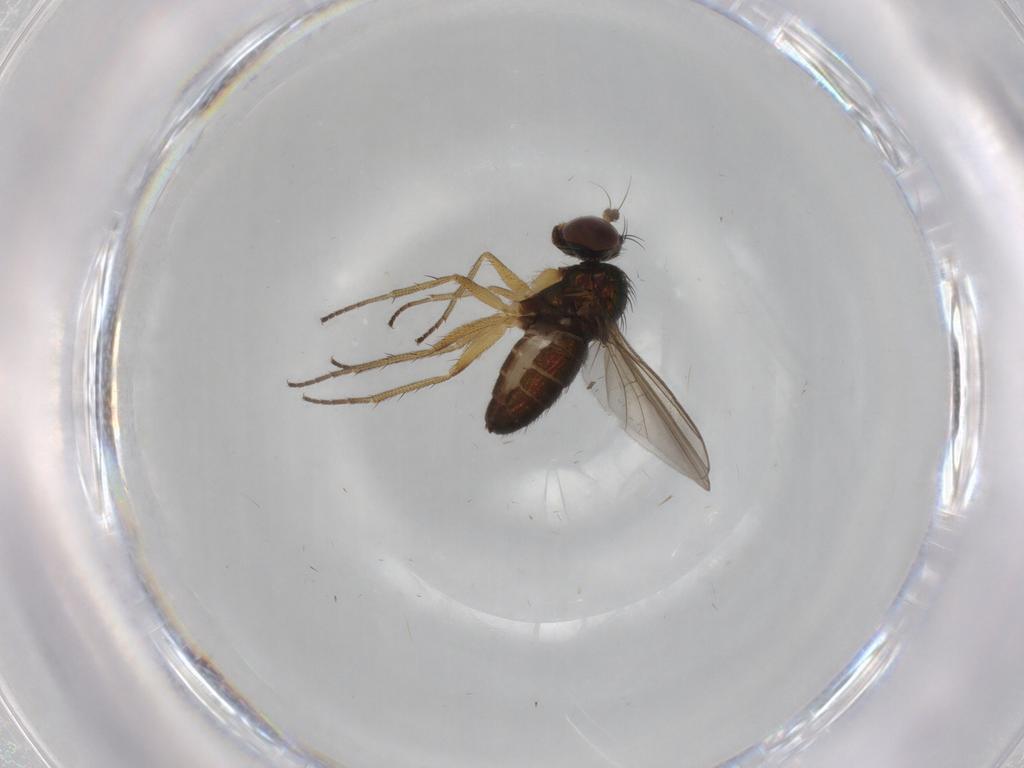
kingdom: Animalia
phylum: Arthropoda
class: Insecta
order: Diptera
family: Dolichopodidae
